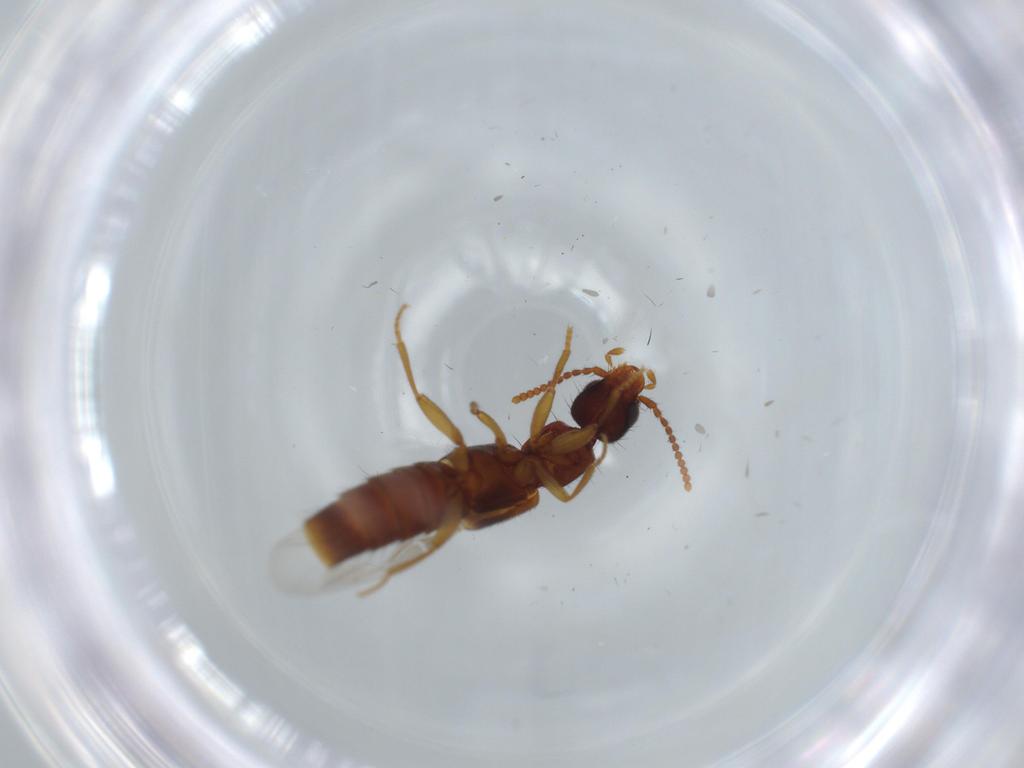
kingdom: Animalia
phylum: Arthropoda
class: Insecta
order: Coleoptera
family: Staphylinidae
